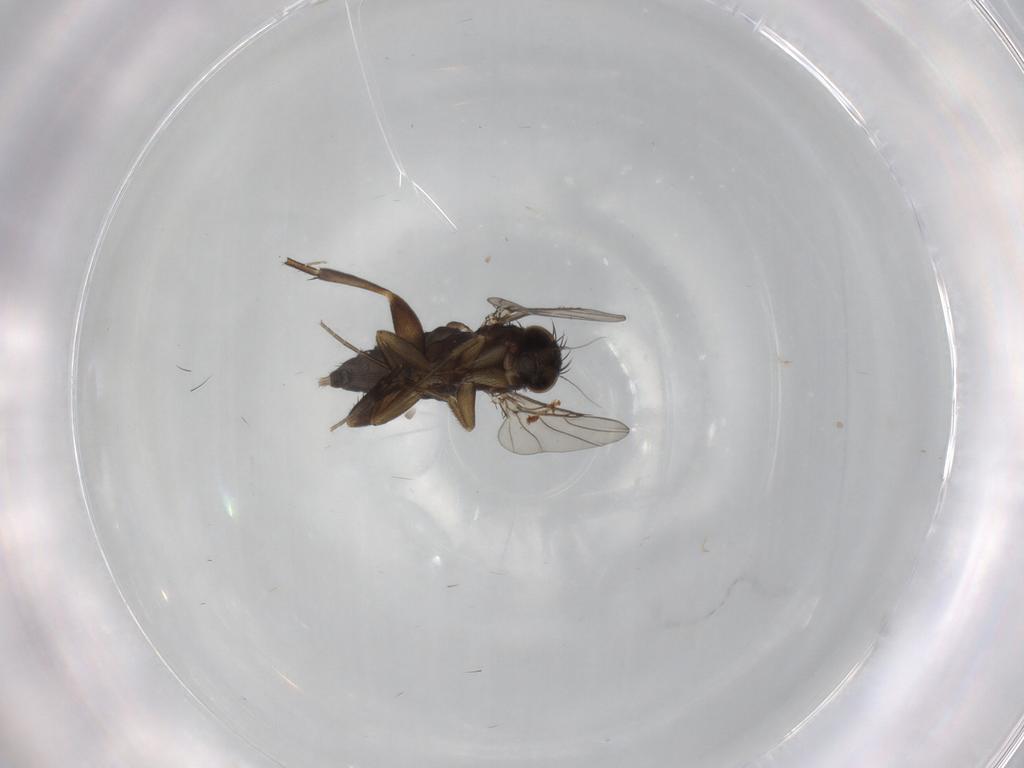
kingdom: Animalia
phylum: Arthropoda
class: Insecta
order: Diptera
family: Phoridae
